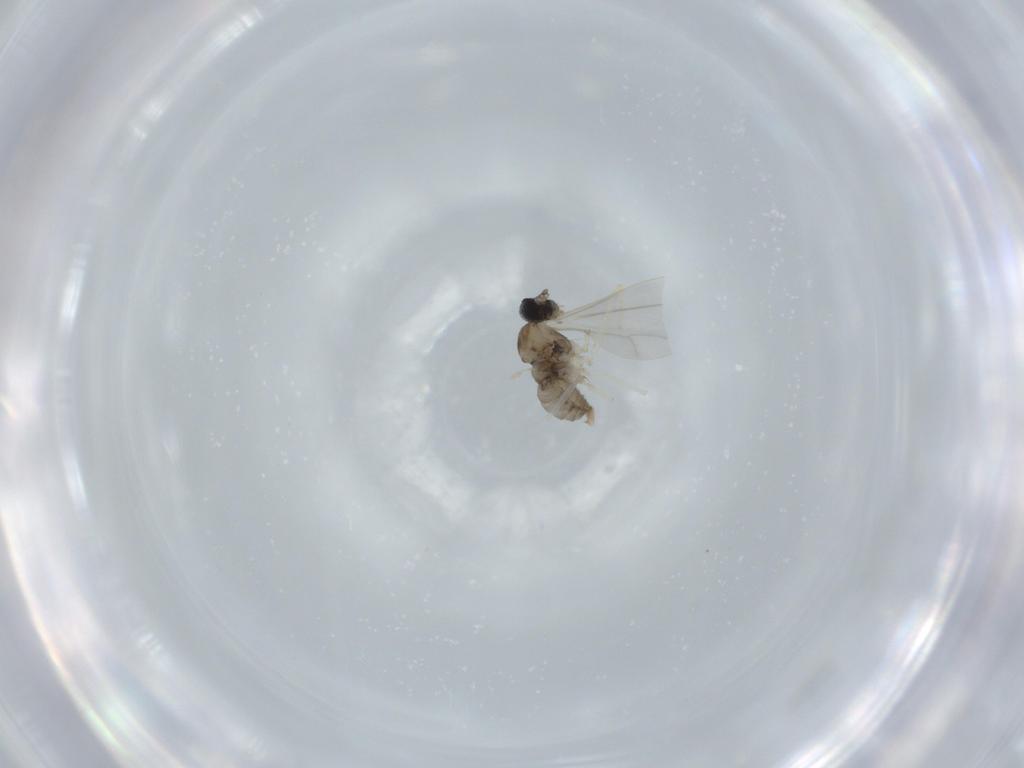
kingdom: Animalia
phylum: Arthropoda
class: Insecta
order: Diptera
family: Cecidomyiidae
